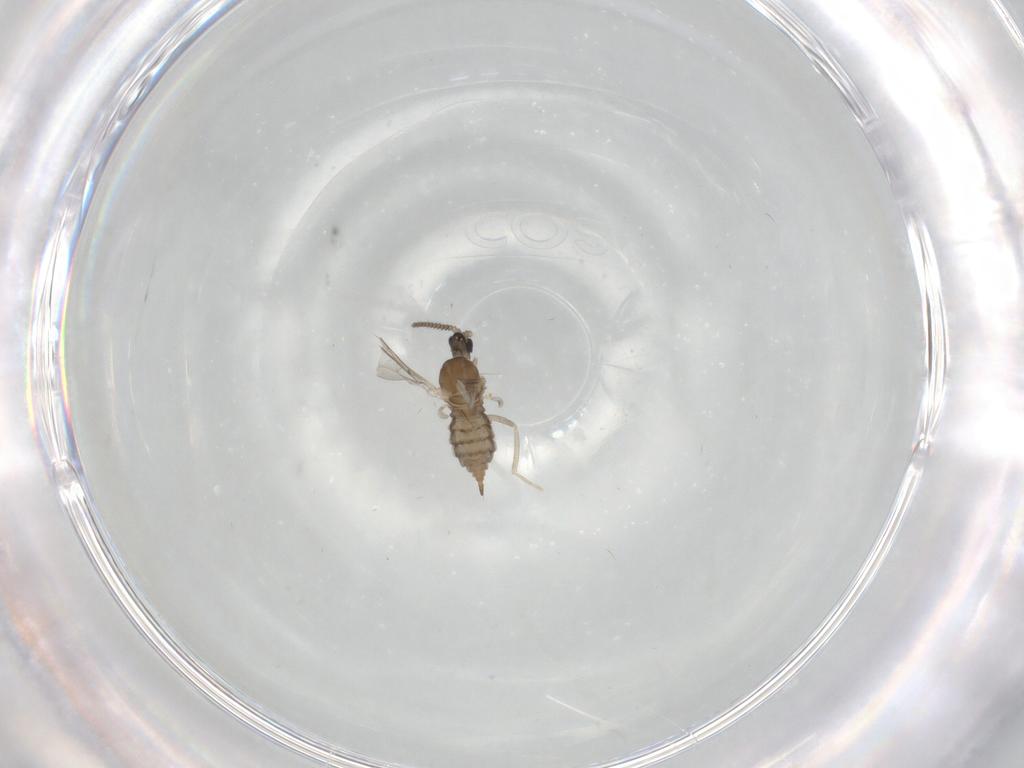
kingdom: Animalia
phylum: Arthropoda
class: Insecta
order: Diptera
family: Cecidomyiidae
